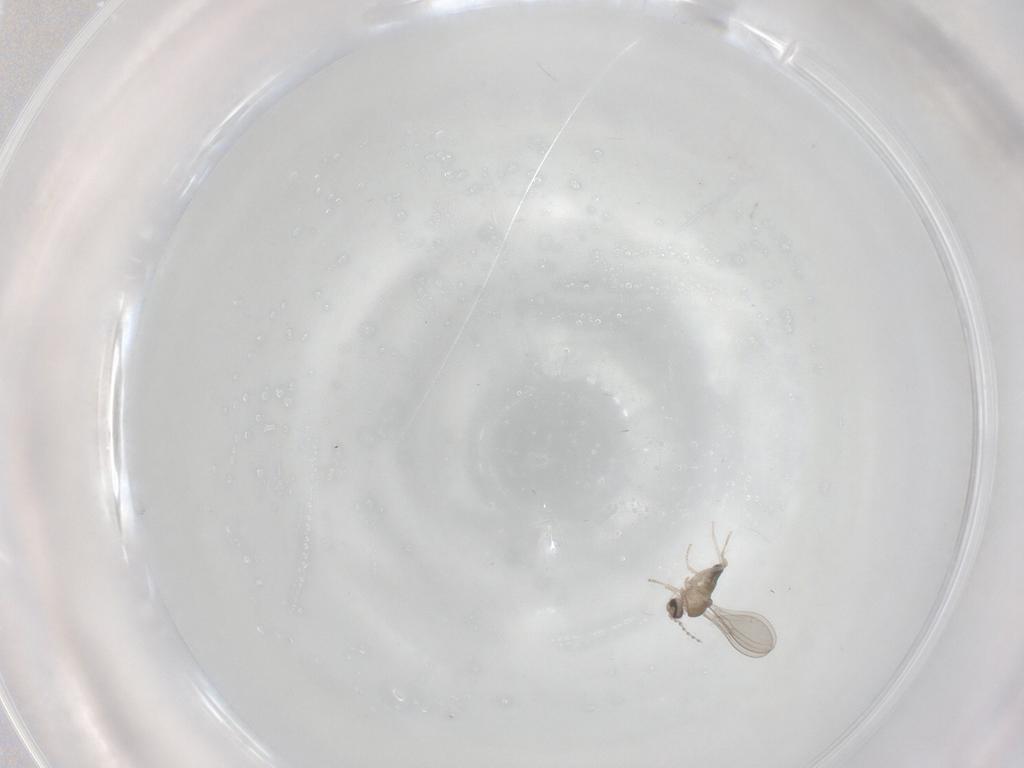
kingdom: Animalia
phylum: Arthropoda
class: Insecta
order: Diptera
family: Cecidomyiidae
